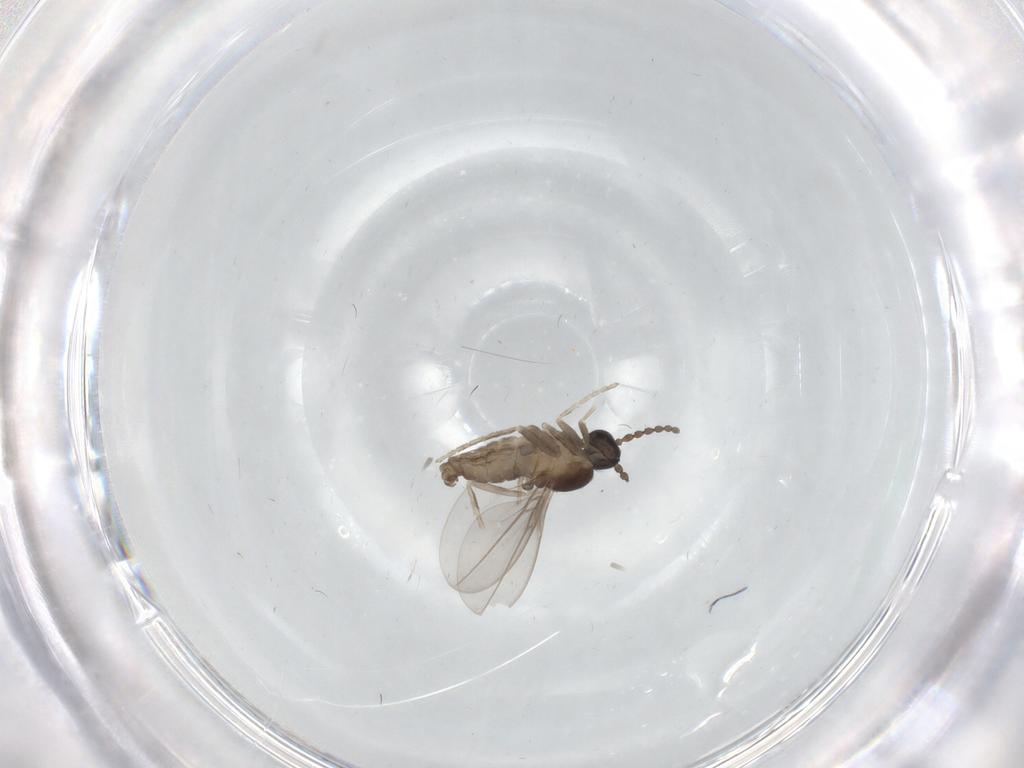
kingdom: Animalia
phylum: Arthropoda
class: Insecta
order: Diptera
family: Cecidomyiidae
